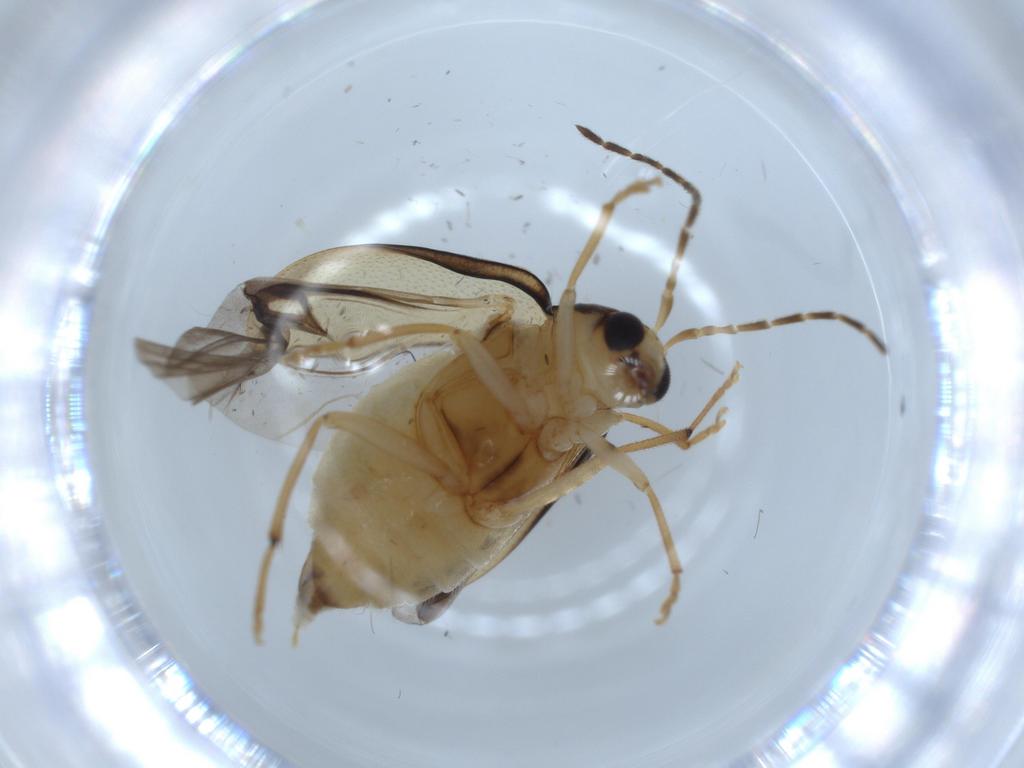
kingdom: Animalia
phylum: Arthropoda
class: Insecta
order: Coleoptera
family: Chrysomelidae
